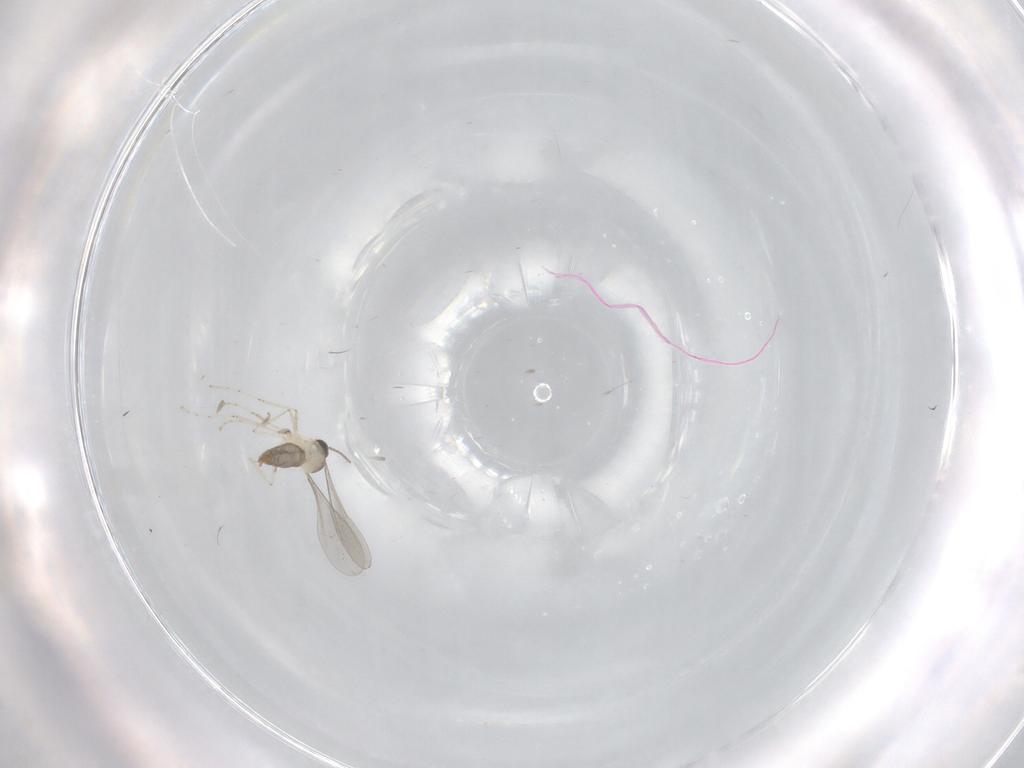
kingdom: Animalia
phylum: Arthropoda
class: Insecta
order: Diptera
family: Cecidomyiidae
